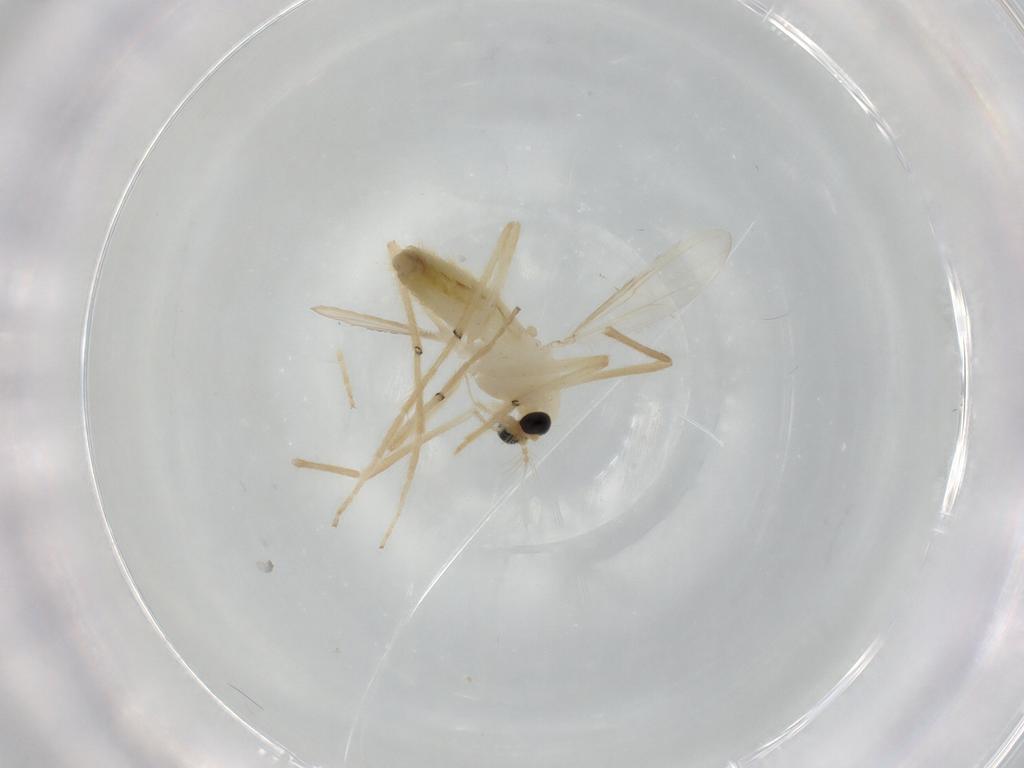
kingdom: Animalia
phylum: Arthropoda
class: Insecta
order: Diptera
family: Chironomidae
